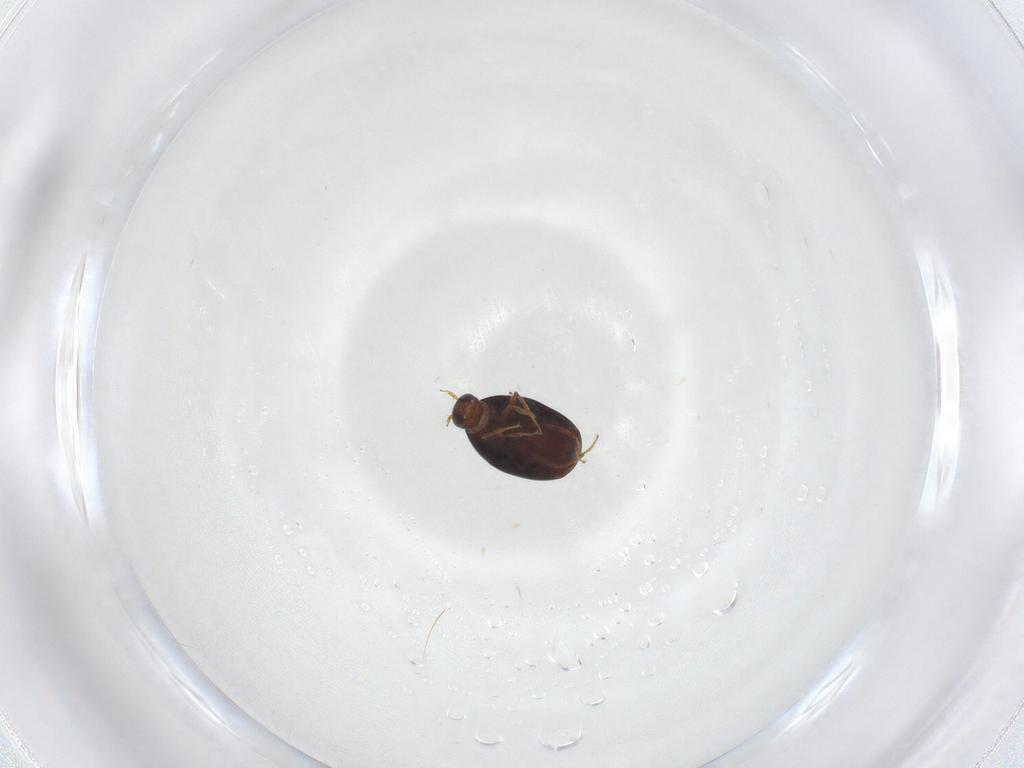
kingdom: Animalia
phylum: Arthropoda
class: Insecta
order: Coleoptera
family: Staphylinidae
